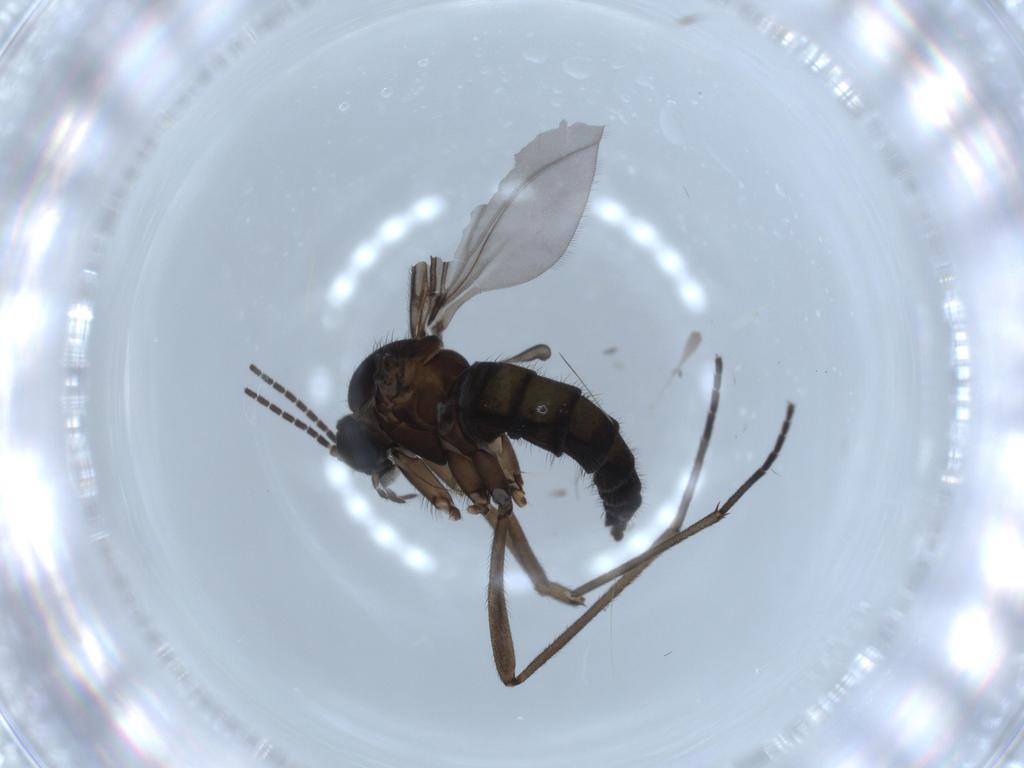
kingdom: Animalia
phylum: Arthropoda
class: Insecta
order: Diptera
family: Sciaridae
